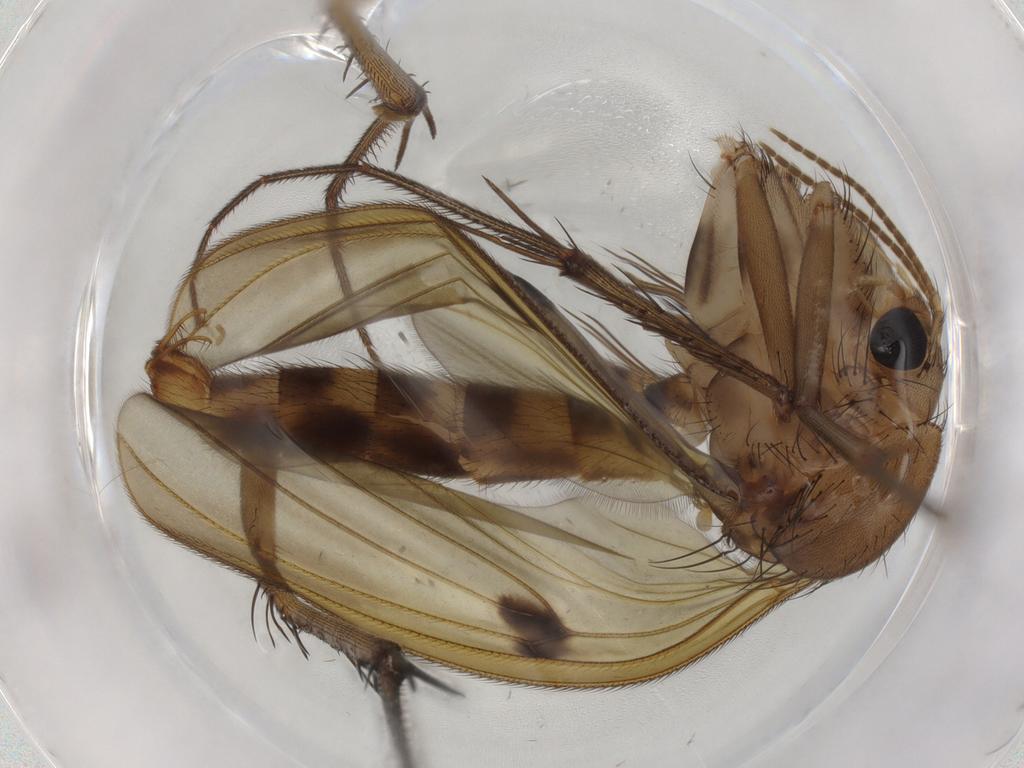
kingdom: Animalia
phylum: Arthropoda
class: Insecta
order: Diptera
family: Mycetophilidae
